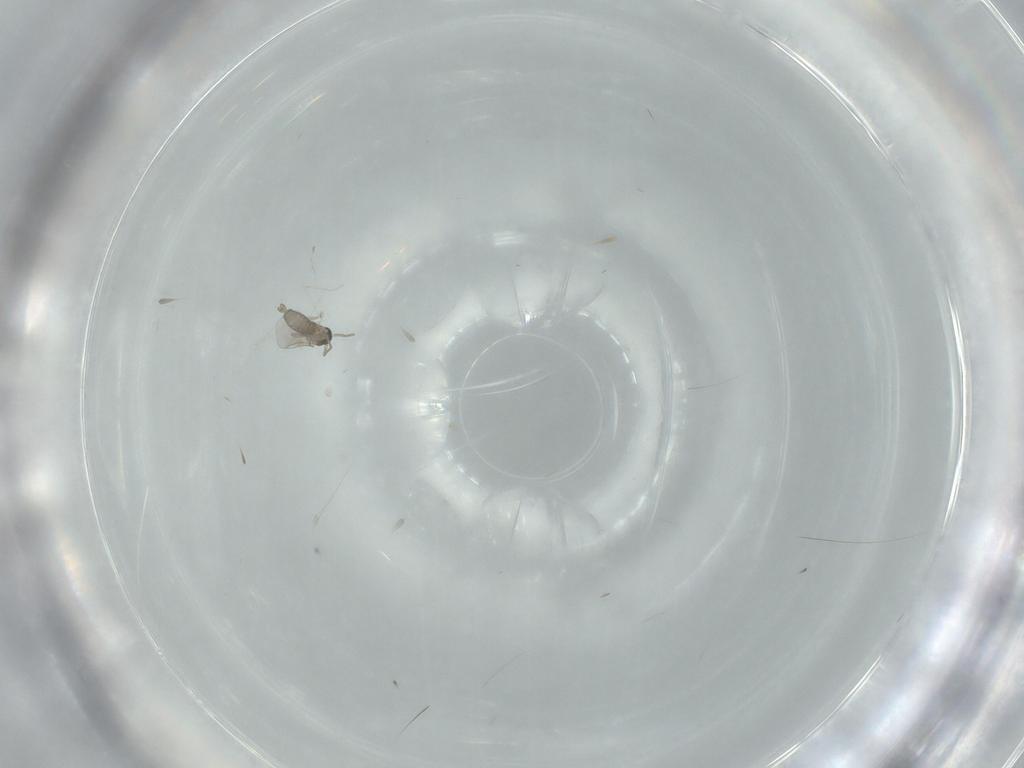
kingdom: Animalia
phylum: Arthropoda
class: Insecta
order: Diptera
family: Sphaeroceridae
